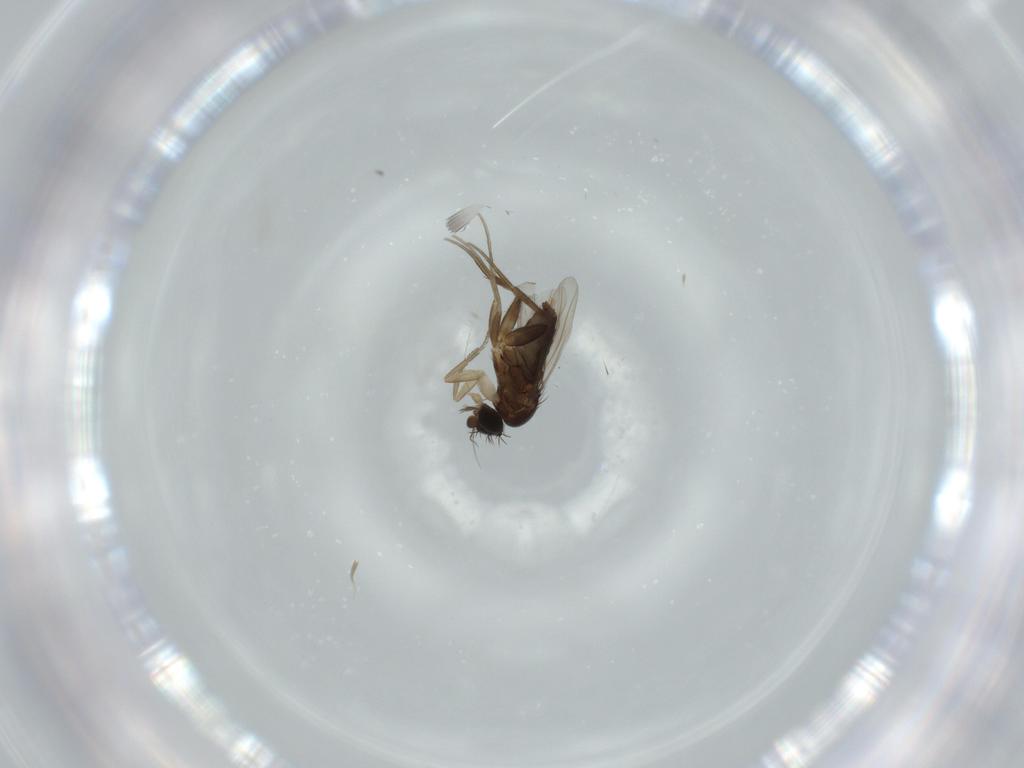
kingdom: Animalia
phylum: Arthropoda
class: Insecta
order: Diptera
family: Phoridae
